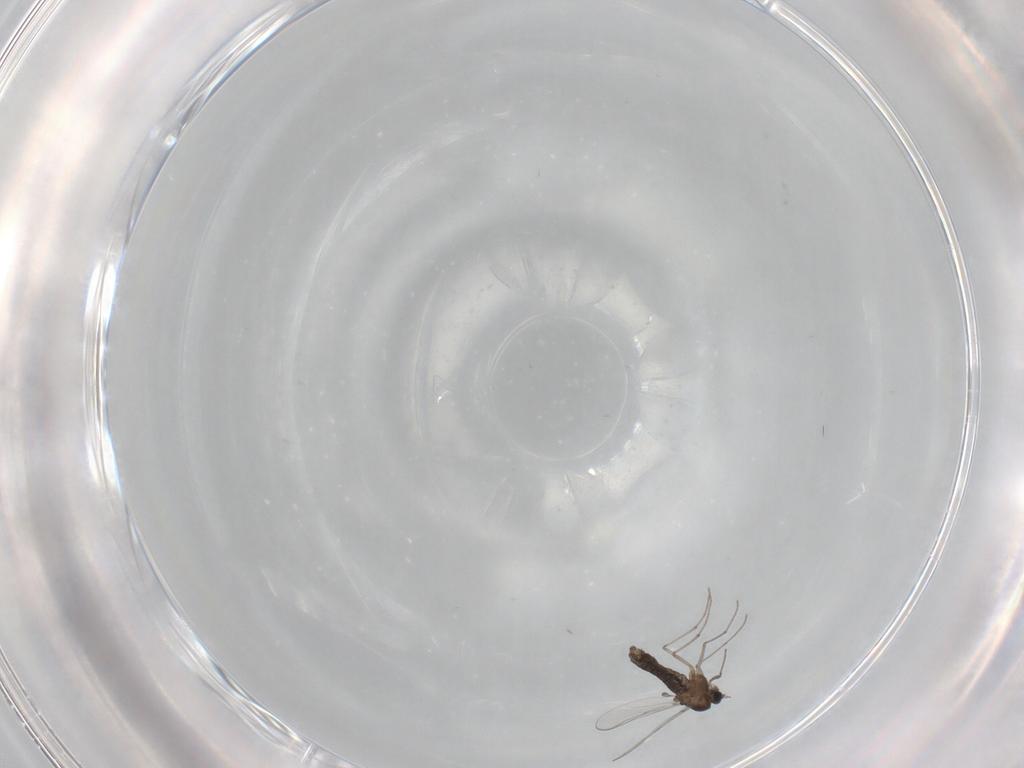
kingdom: Animalia
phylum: Arthropoda
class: Insecta
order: Diptera
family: Chironomidae
